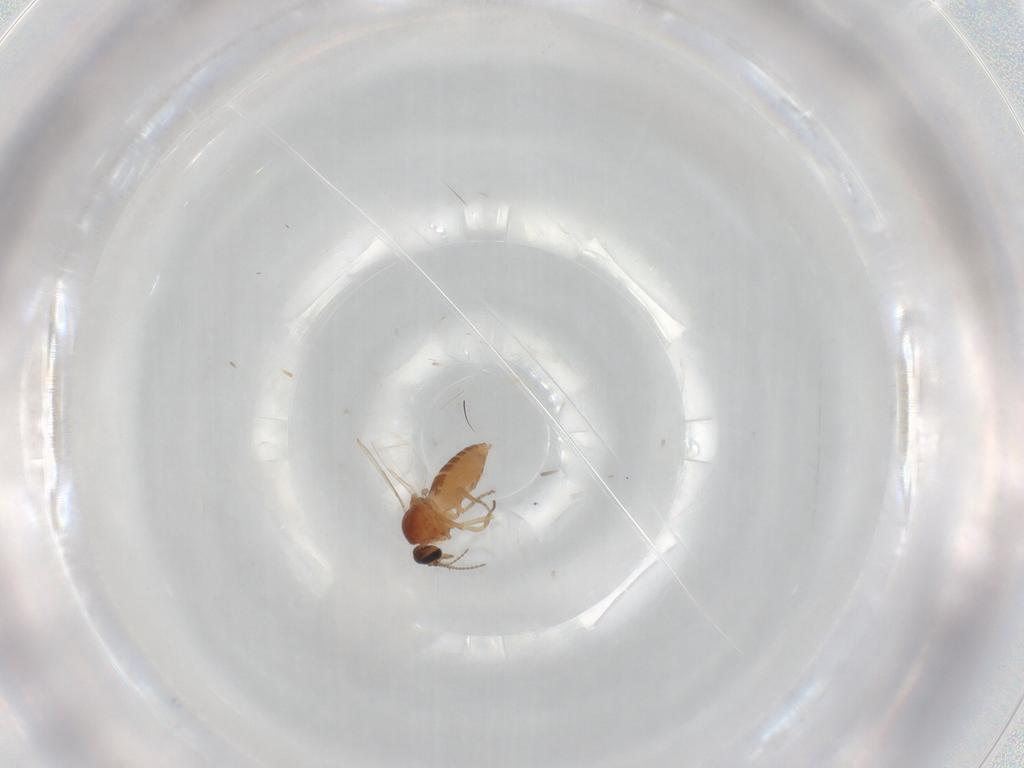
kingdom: Animalia
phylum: Arthropoda
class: Insecta
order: Diptera
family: Ceratopogonidae
